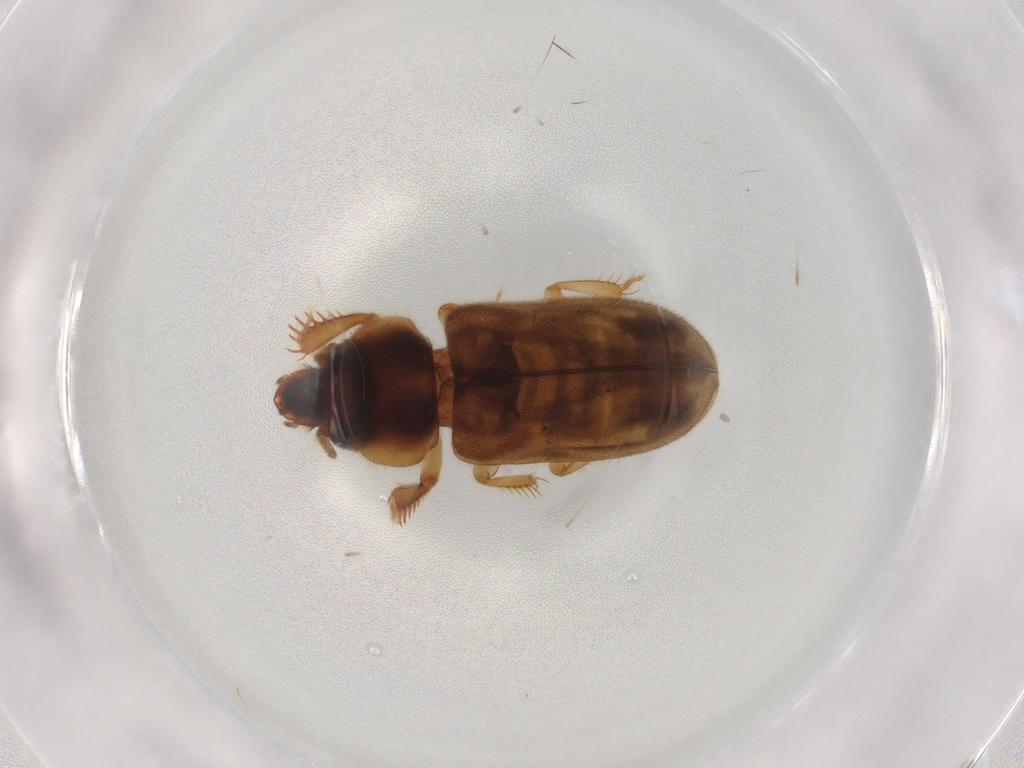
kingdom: Animalia
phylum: Arthropoda
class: Insecta
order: Coleoptera
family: Heteroceridae
